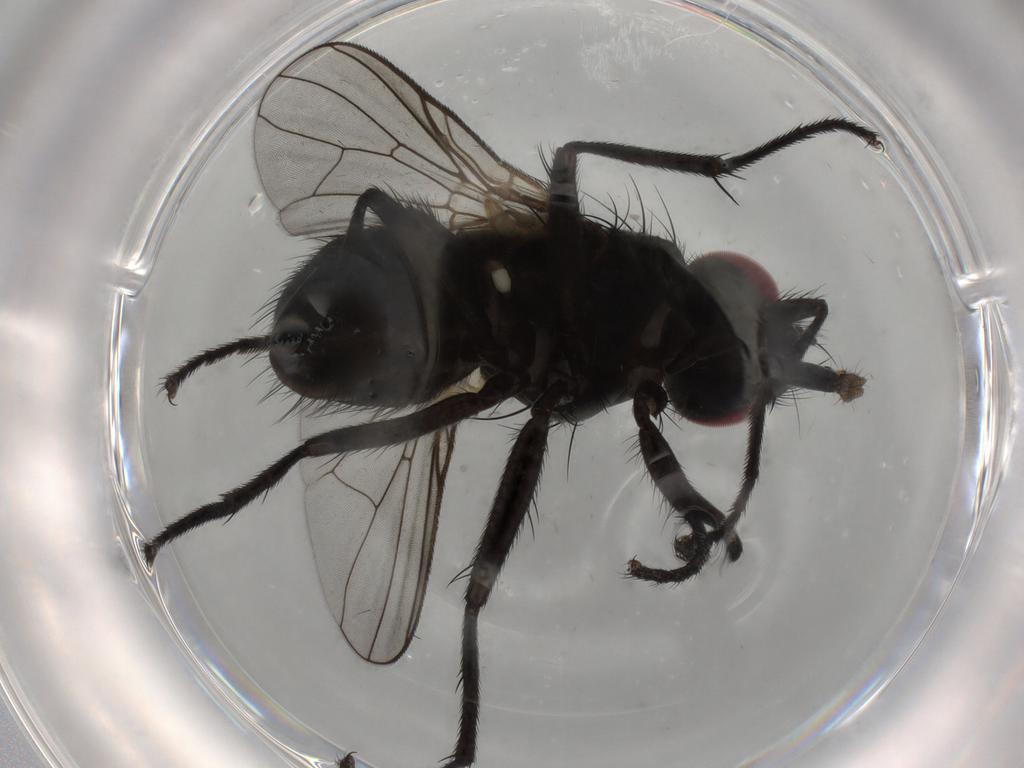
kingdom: Animalia
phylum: Arthropoda
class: Insecta
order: Diptera
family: Muscidae
